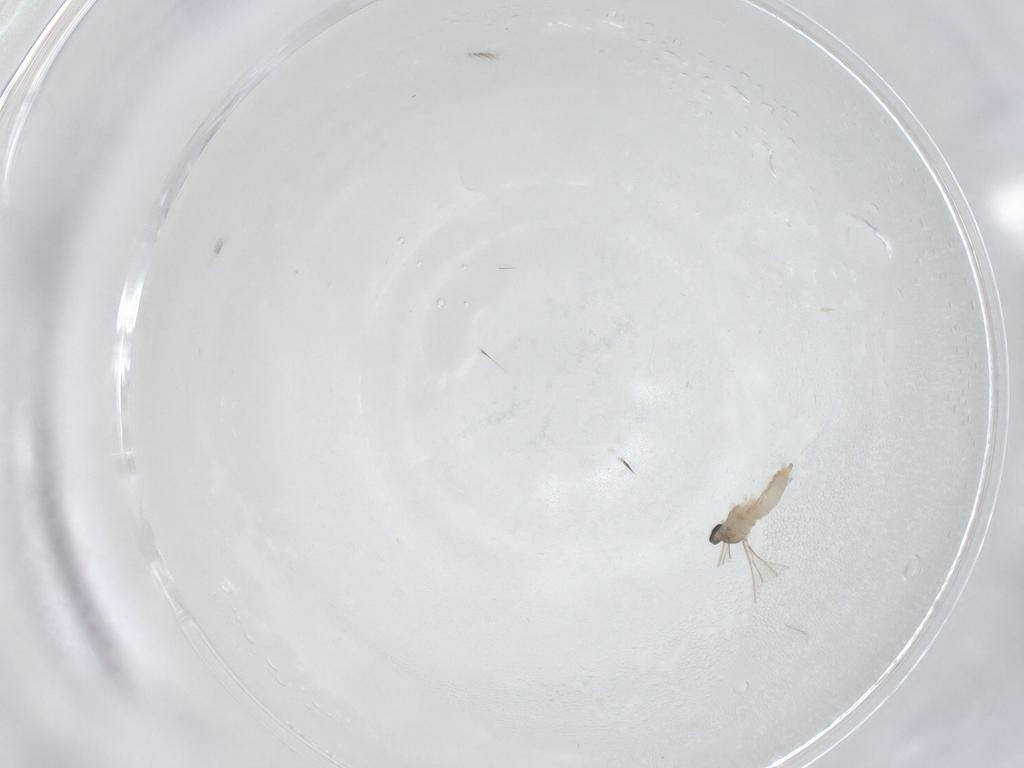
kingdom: Animalia
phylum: Arthropoda
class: Insecta
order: Diptera
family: Cecidomyiidae
